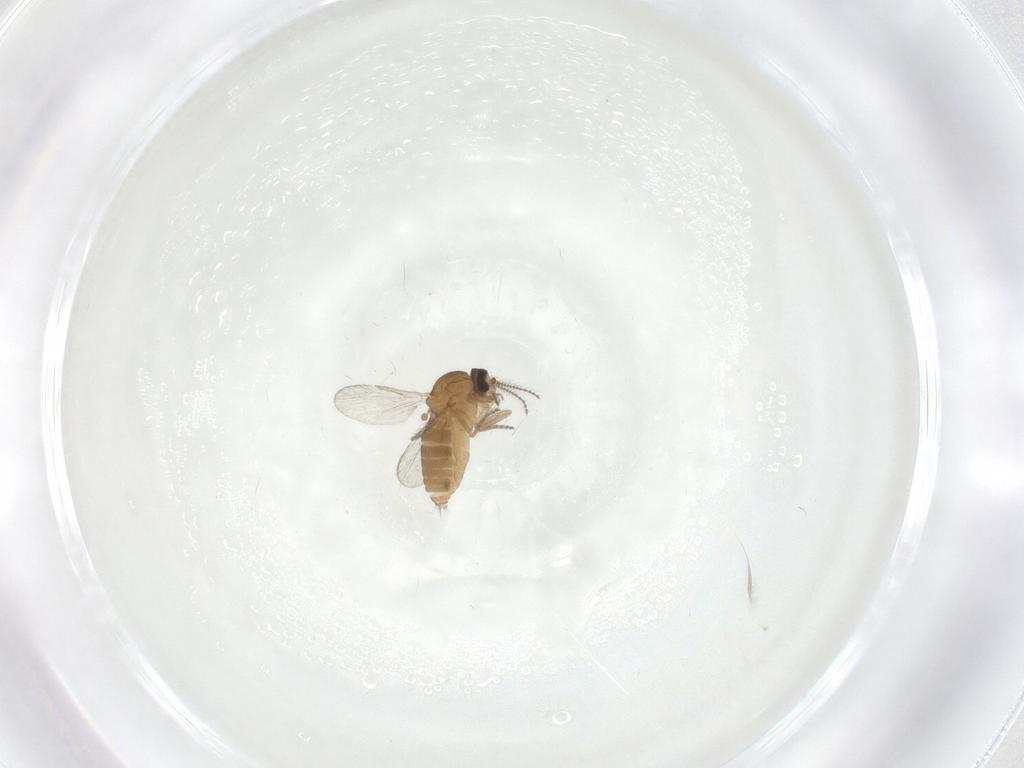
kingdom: Animalia
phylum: Arthropoda
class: Insecta
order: Diptera
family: Ceratopogonidae
